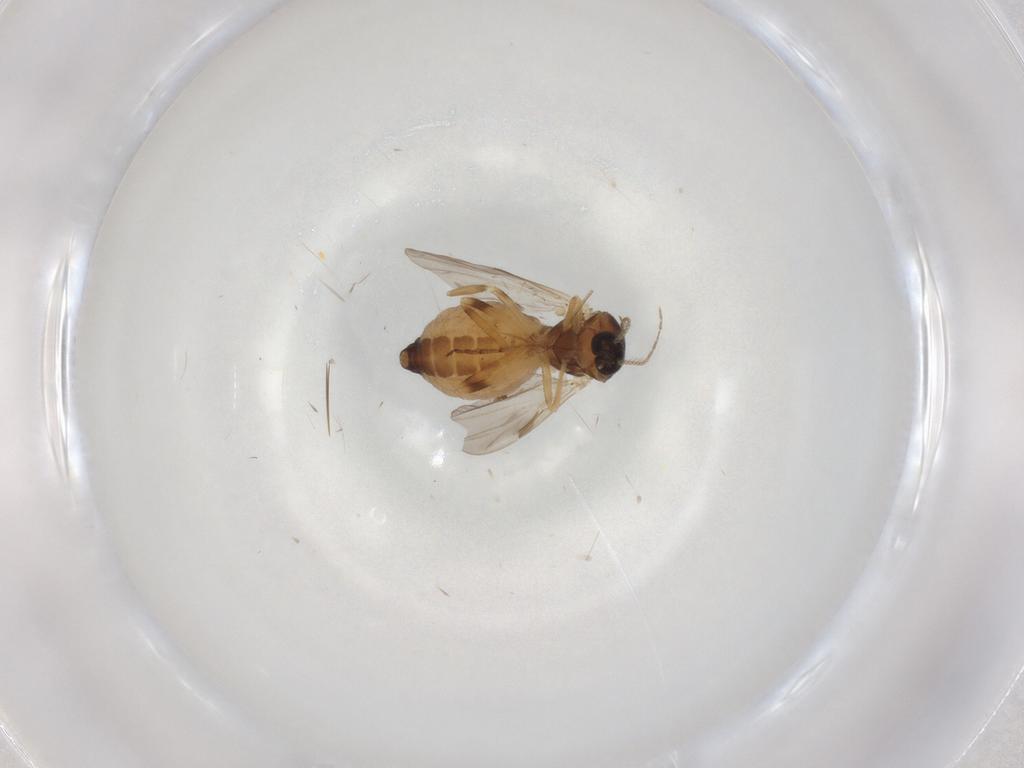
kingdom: Animalia
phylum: Arthropoda
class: Insecta
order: Diptera
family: Ceratopogonidae
